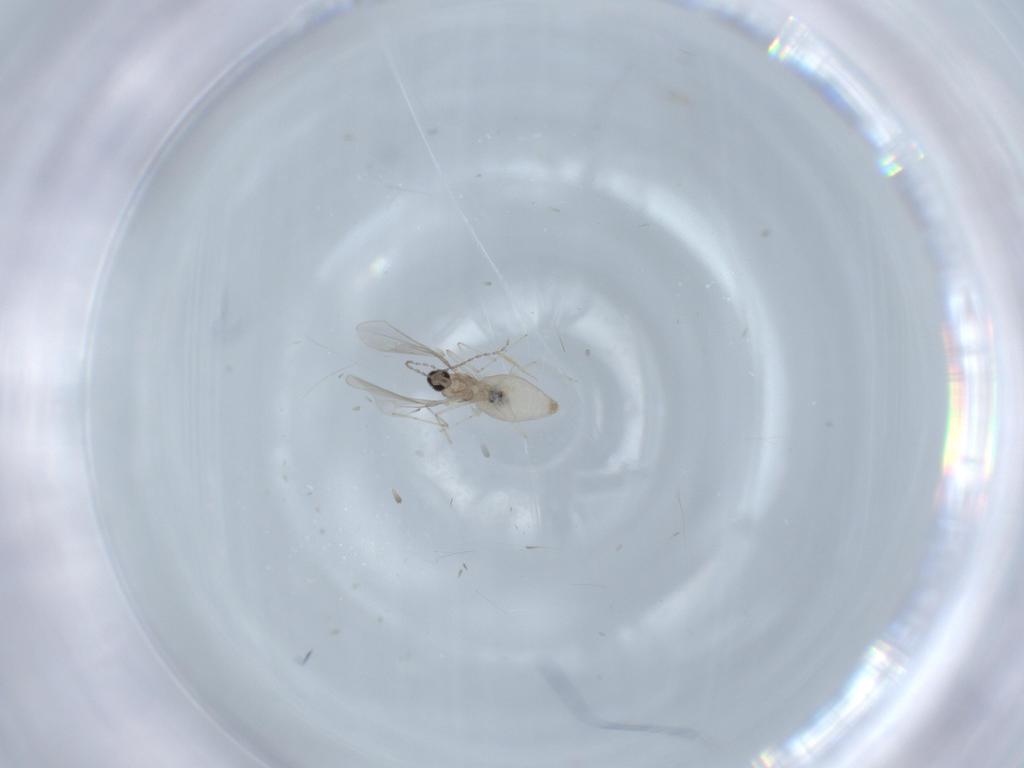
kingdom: Animalia
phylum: Arthropoda
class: Insecta
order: Diptera
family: Cecidomyiidae
